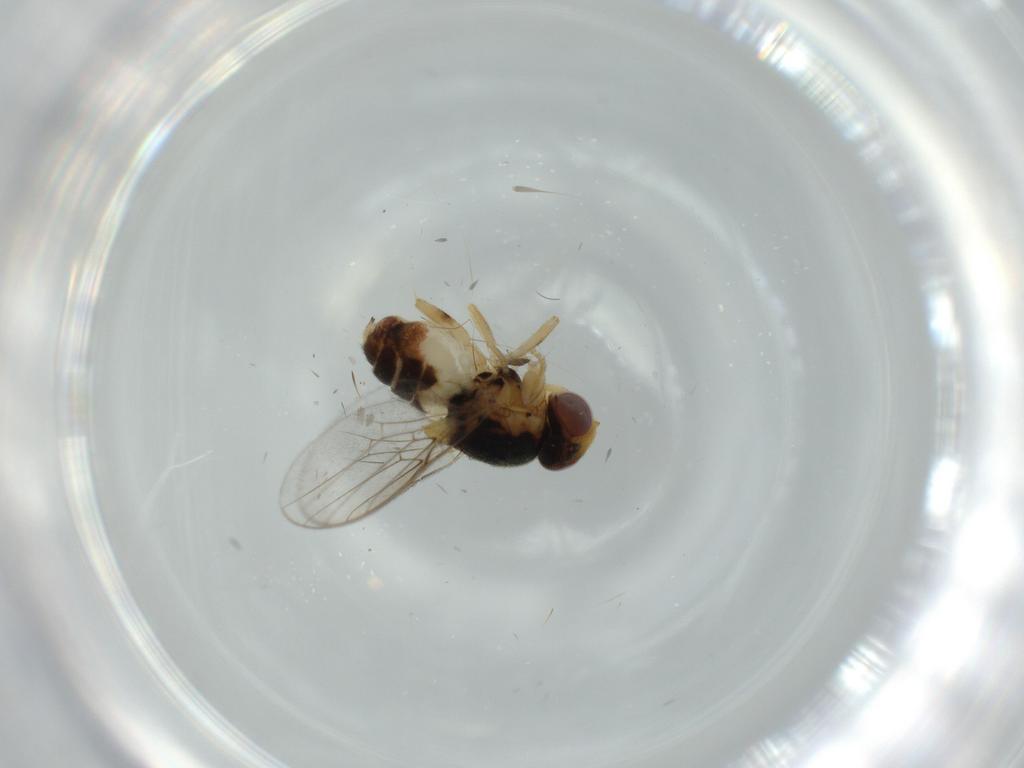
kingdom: Animalia
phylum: Arthropoda
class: Insecta
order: Diptera
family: Chloropidae
